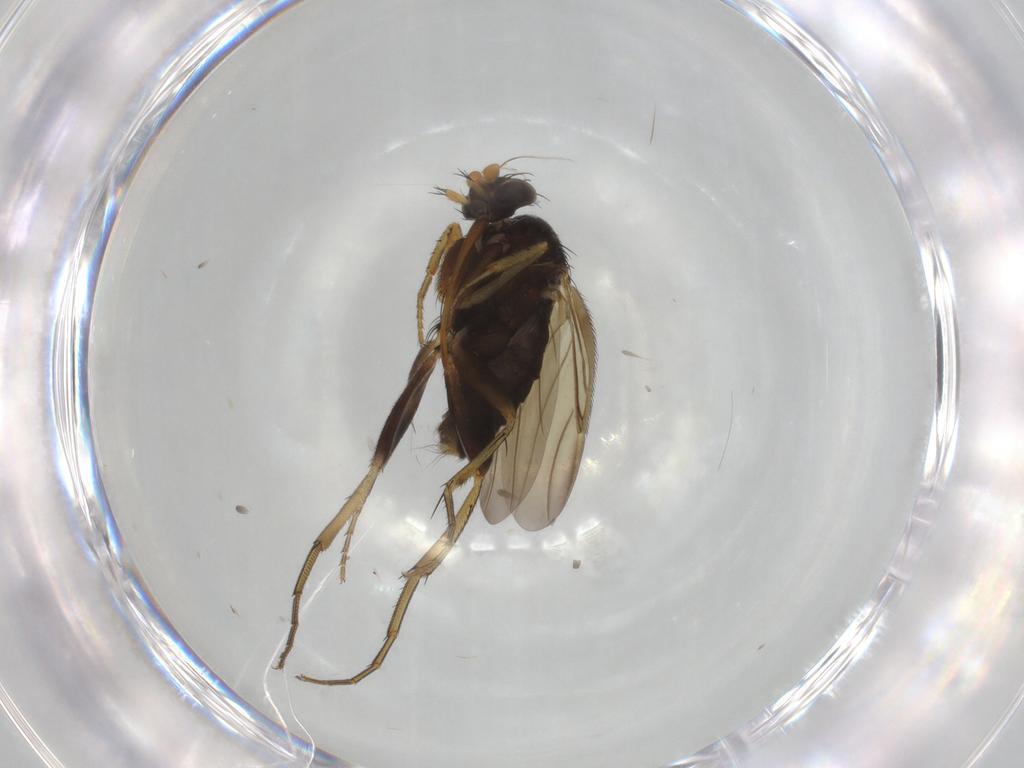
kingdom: Animalia
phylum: Arthropoda
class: Insecta
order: Diptera
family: Phoridae
